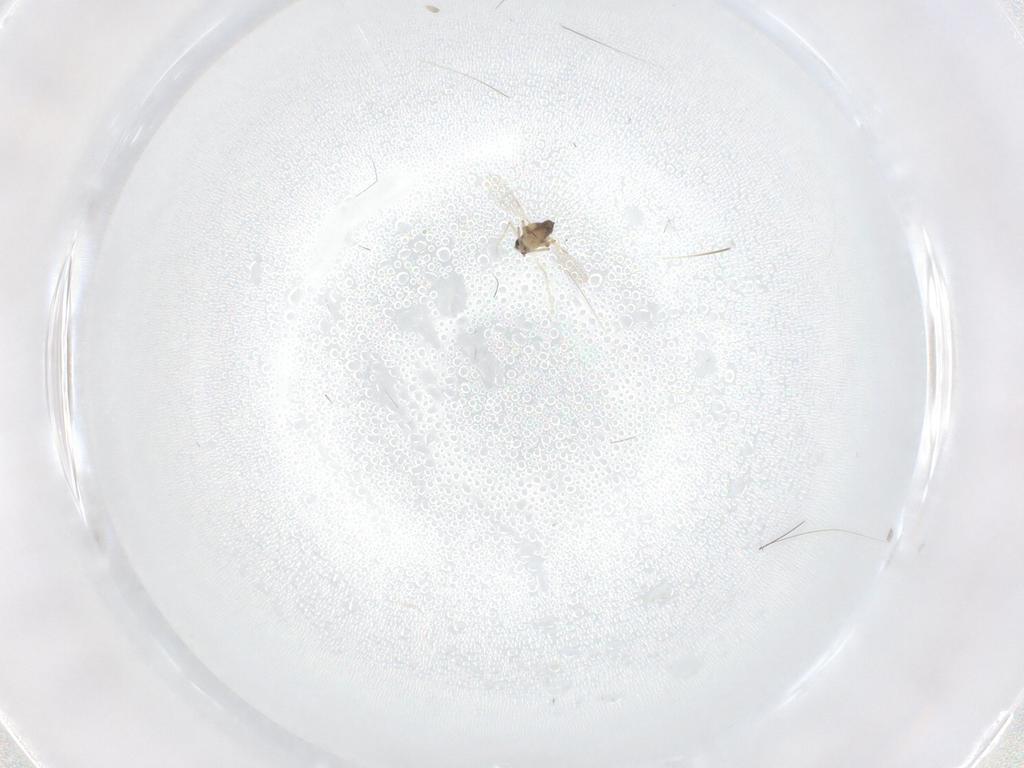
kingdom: Animalia
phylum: Arthropoda
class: Insecta
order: Diptera
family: Ceratopogonidae
